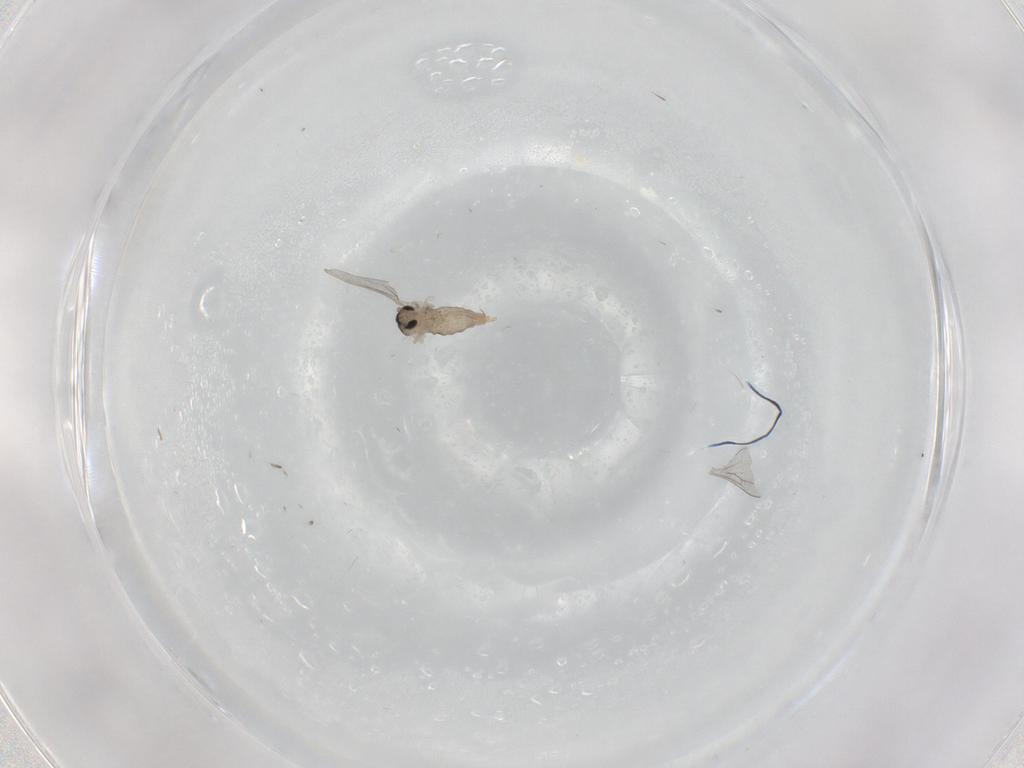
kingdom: Animalia
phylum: Arthropoda
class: Insecta
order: Diptera
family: Cecidomyiidae
